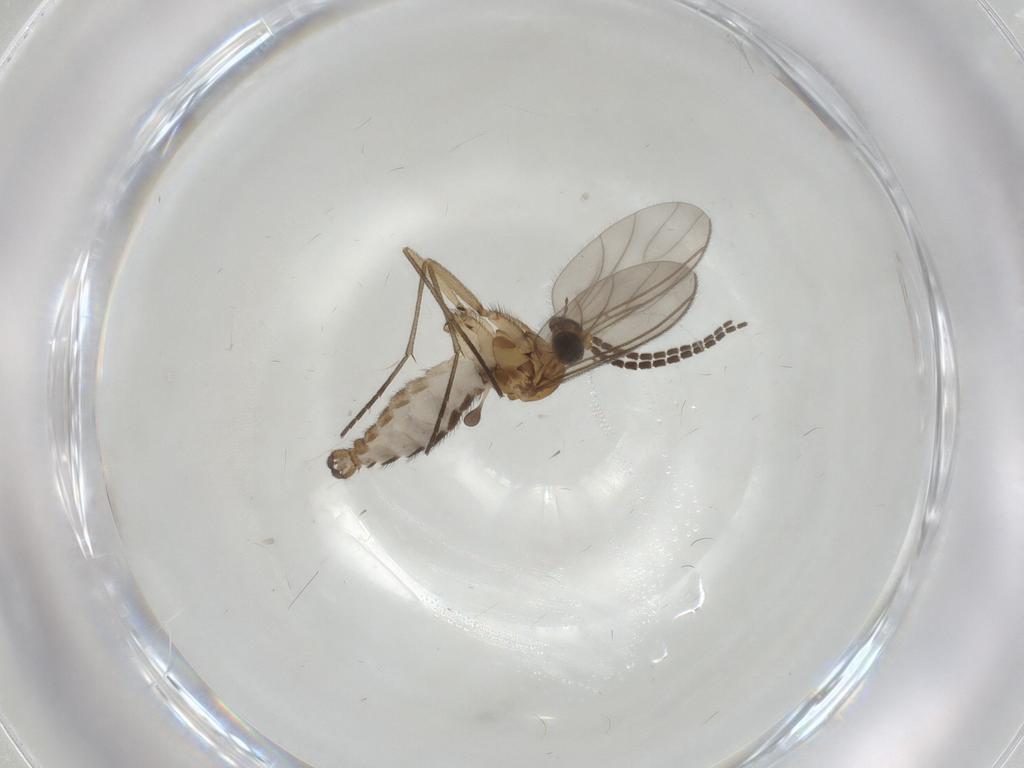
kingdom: Animalia
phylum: Arthropoda
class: Insecta
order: Diptera
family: Sciaridae
